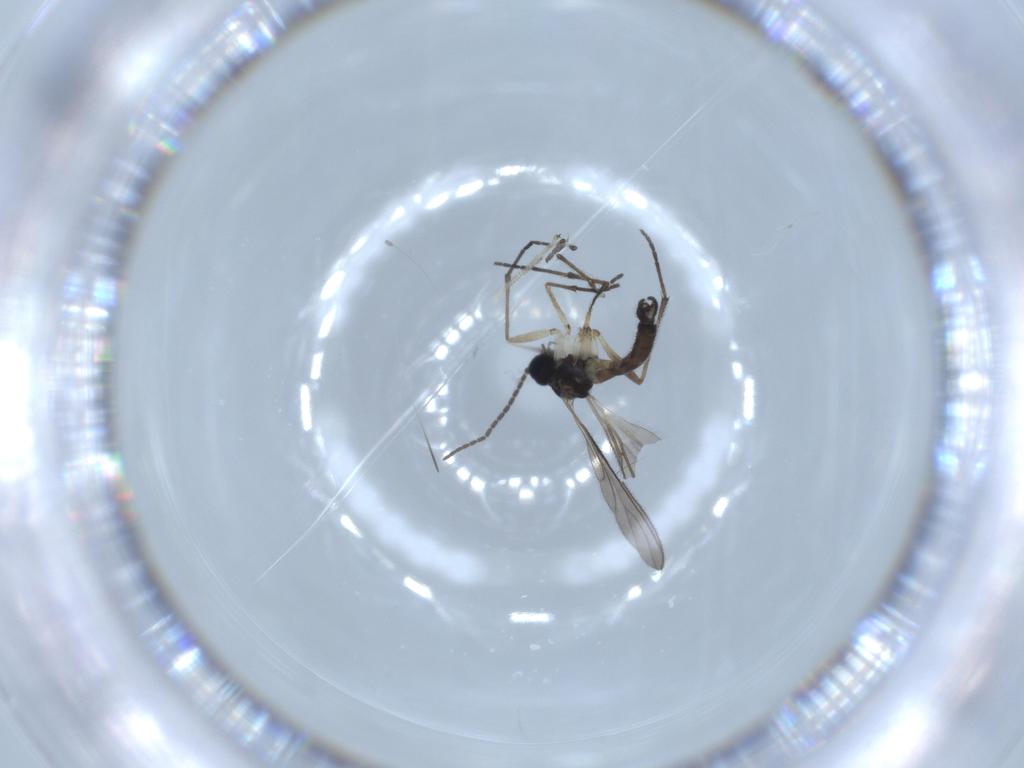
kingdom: Animalia
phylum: Arthropoda
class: Insecta
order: Diptera
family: Sciaridae
